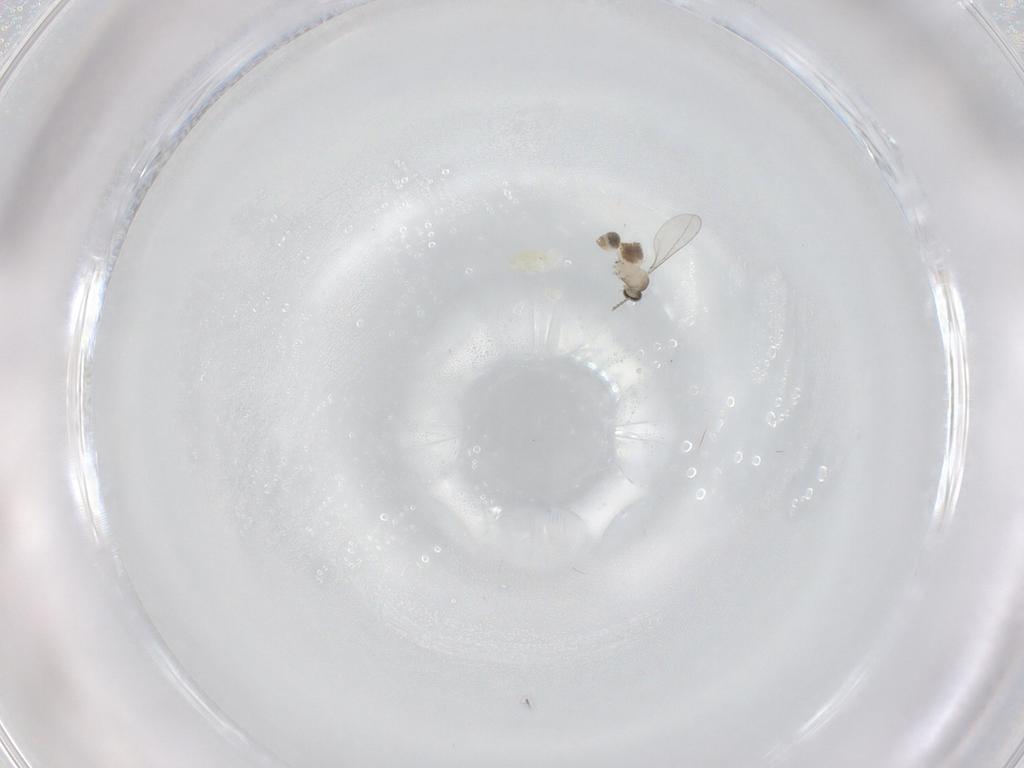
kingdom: Animalia
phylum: Arthropoda
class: Insecta
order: Diptera
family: Cecidomyiidae
